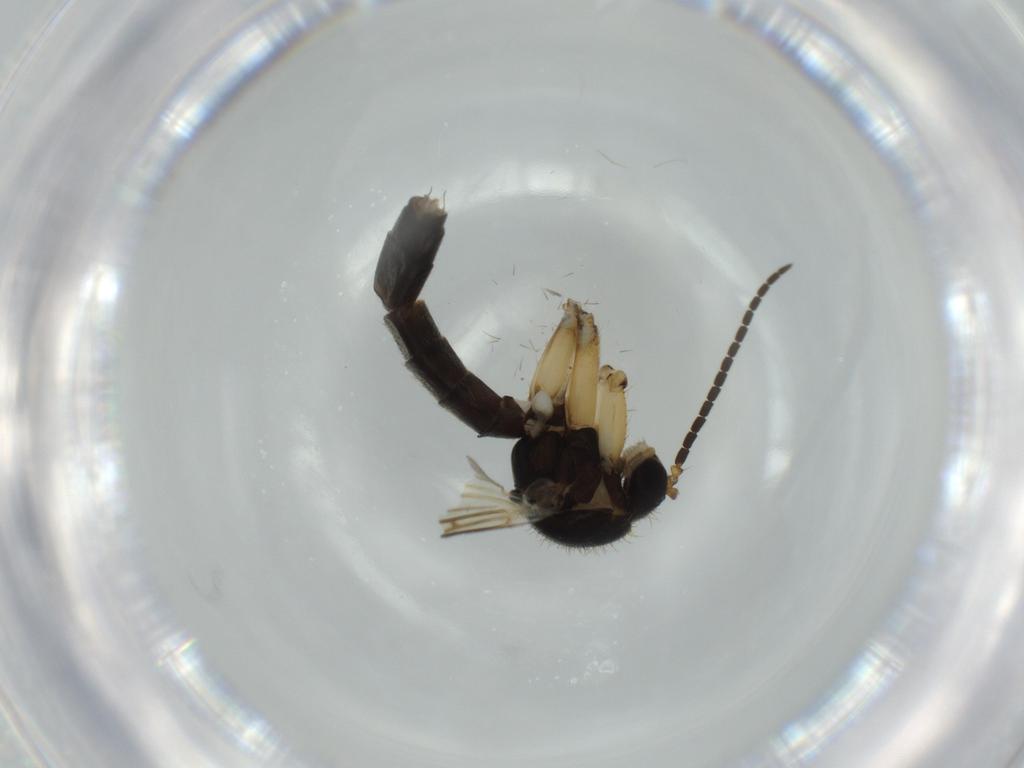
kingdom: Animalia
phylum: Arthropoda
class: Insecta
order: Diptera
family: Chironomidae
